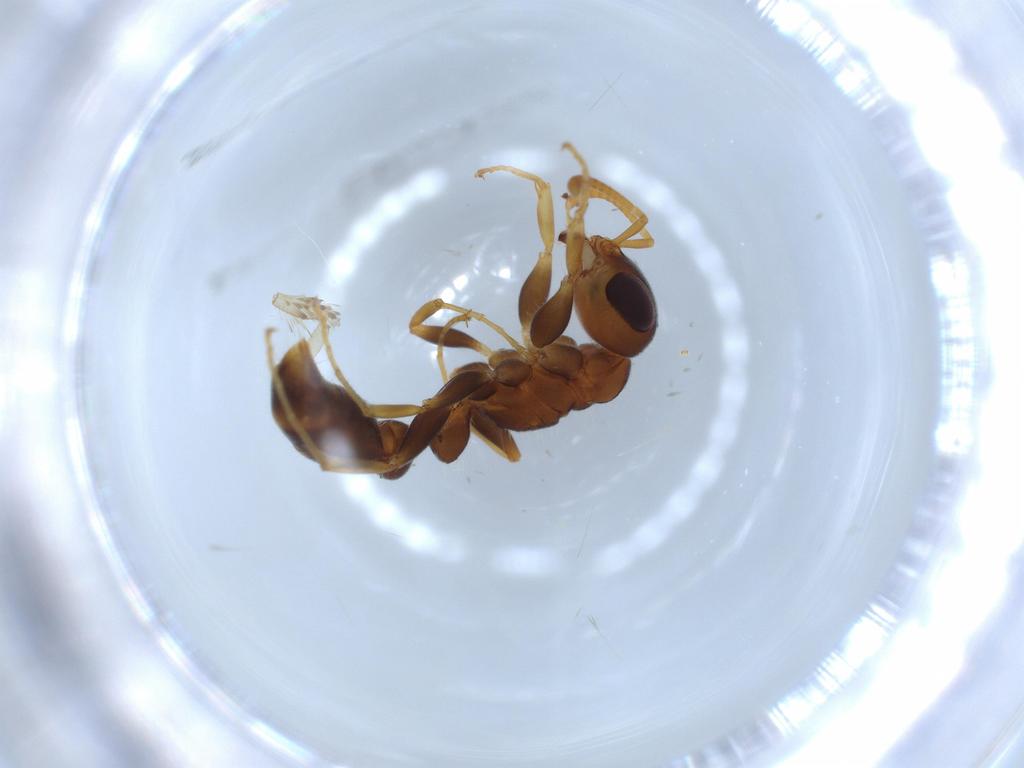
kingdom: Animalia
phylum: Arthropoda
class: Insecta
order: Hymenoptera
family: Formicidae
